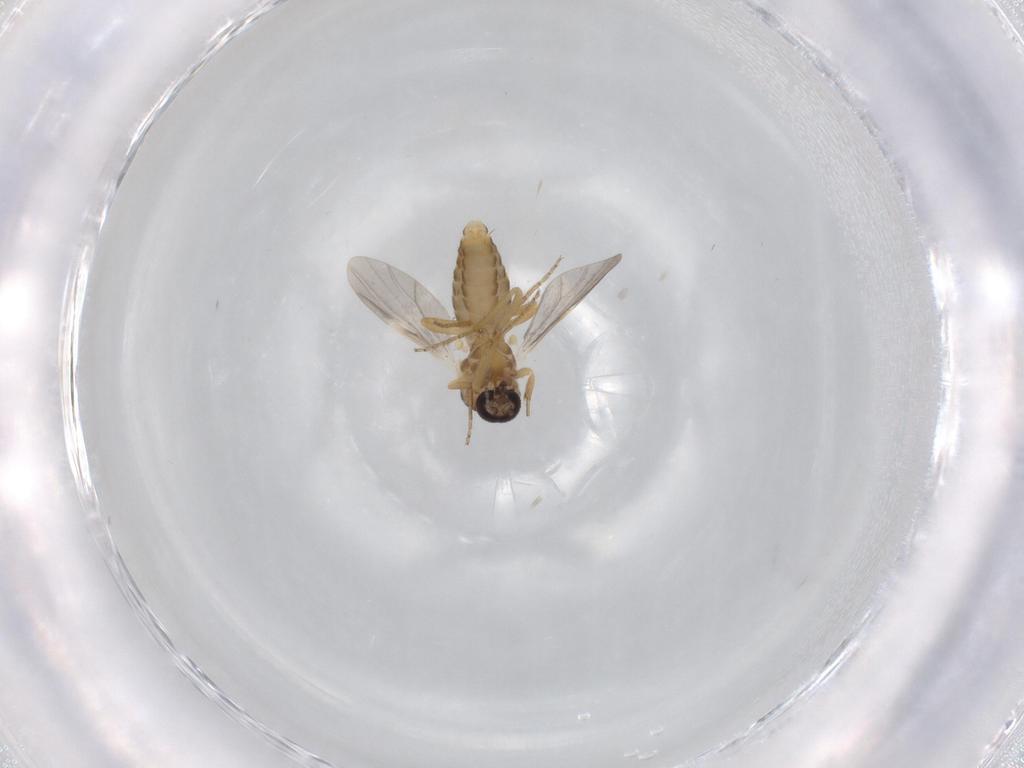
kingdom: Animalia
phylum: Arthropoda
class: Insecta
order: Diptera
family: Ceratopogonidae
